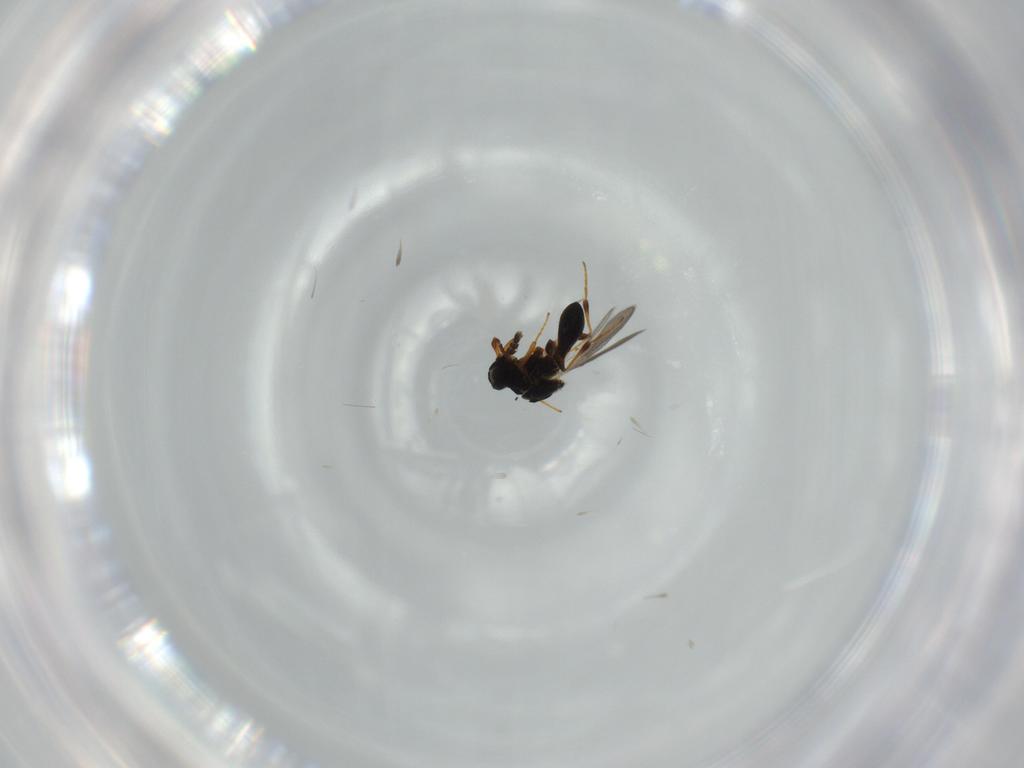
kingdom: Animalia
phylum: Arthropoda
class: Insecta
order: Hymenoptera
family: Platygastridae
